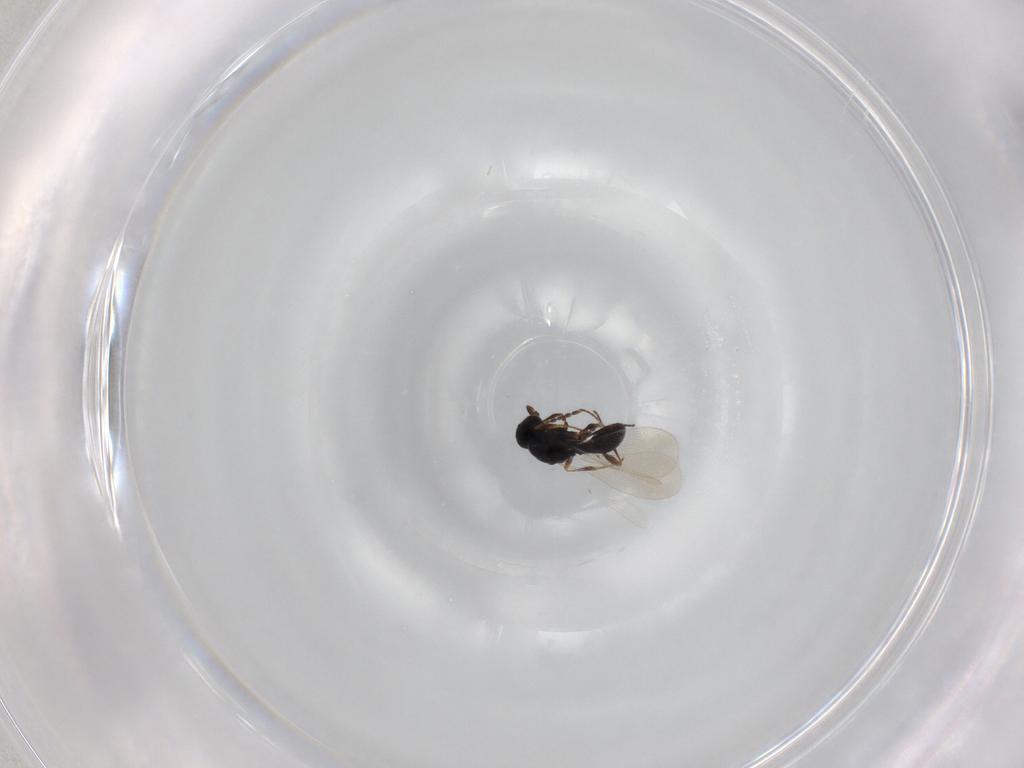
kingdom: Animalia
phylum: Arthropoda
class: Insecta
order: Diptera
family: Mythicomyiidae
